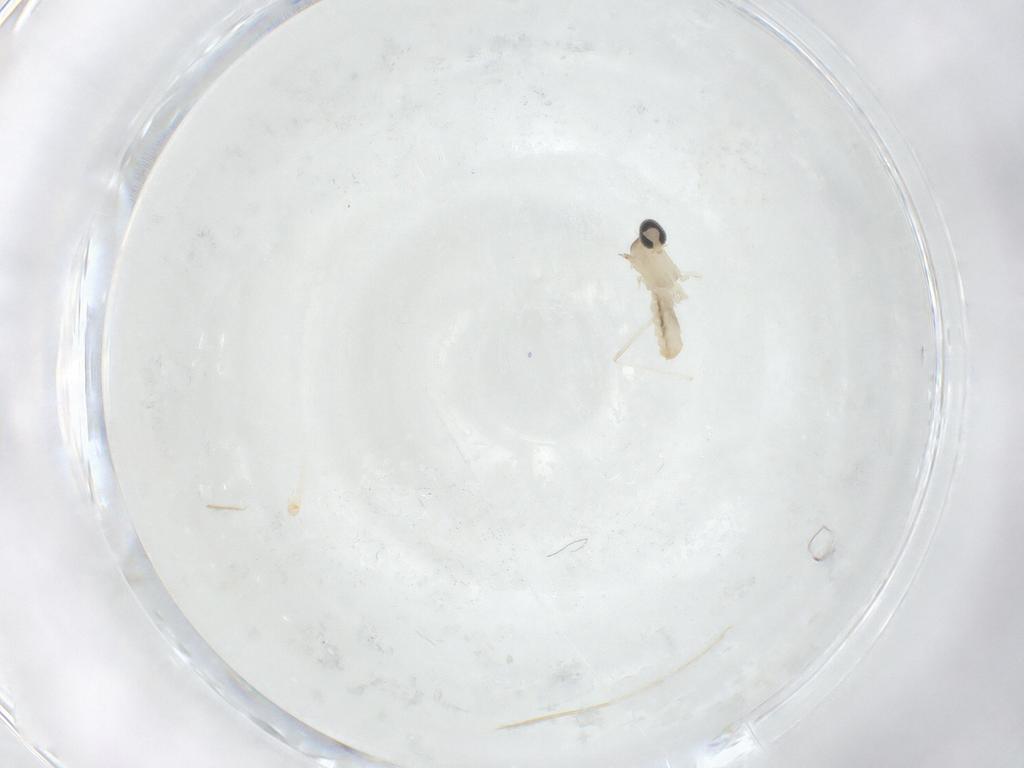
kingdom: Animalia
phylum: Arthropoda
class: Insecta
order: Diptera
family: Cecidomyiidae
